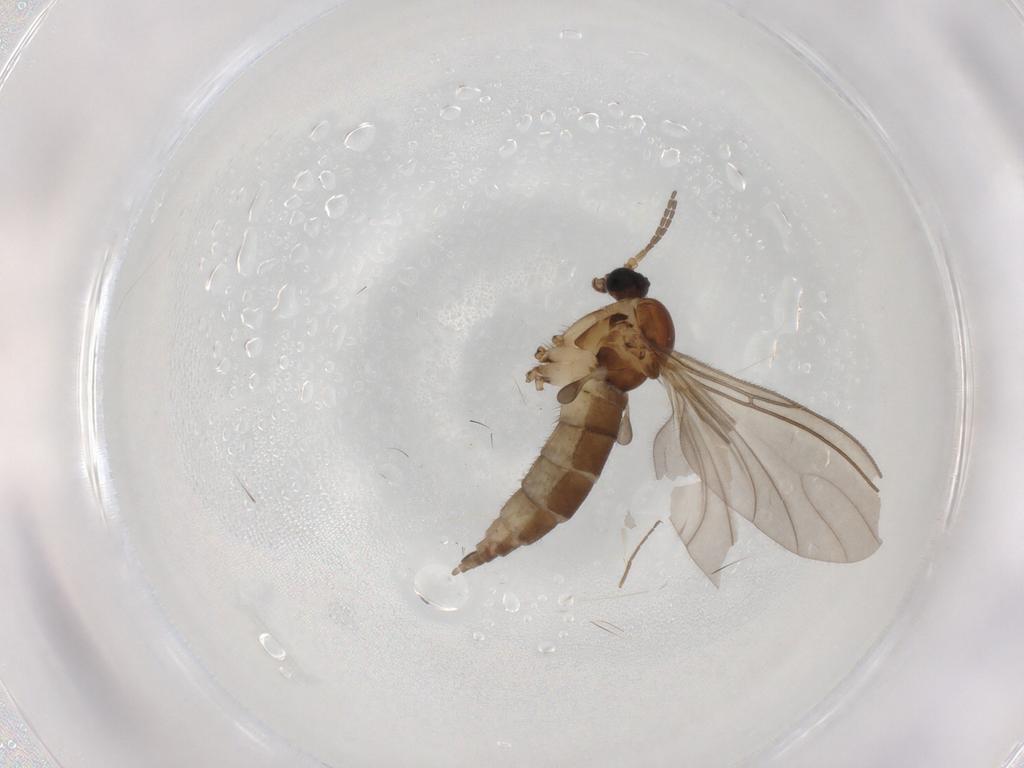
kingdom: Animalia
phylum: Arthropoda
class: Insecta
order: Diptera
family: Sciaridae
